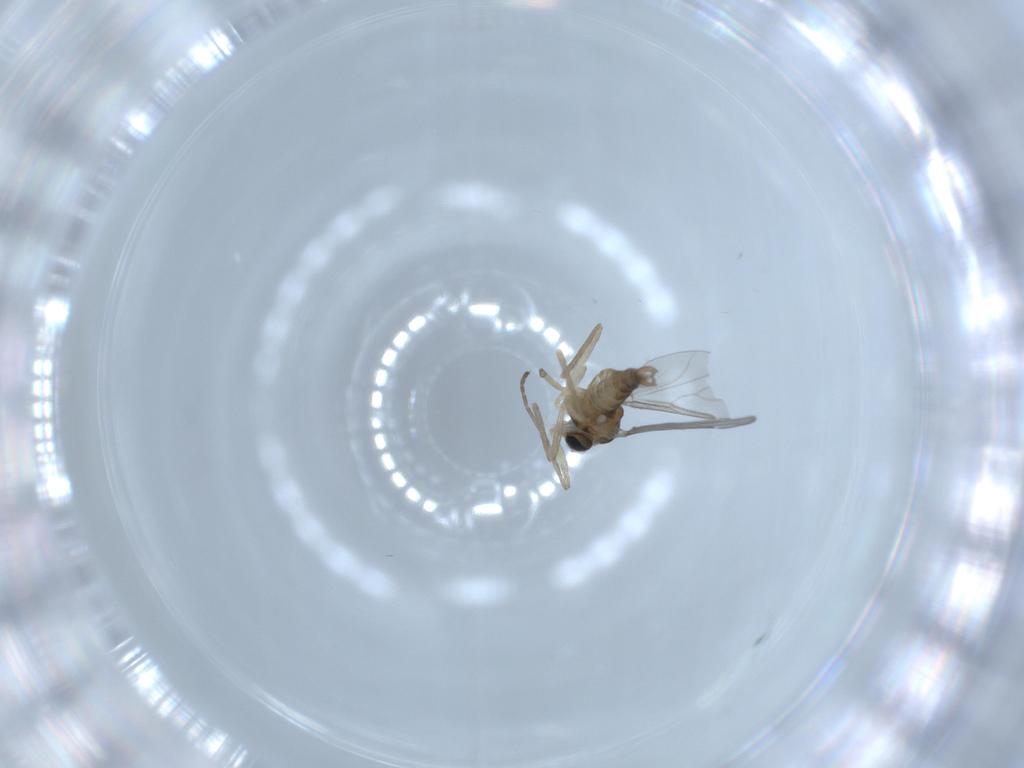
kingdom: Animalia
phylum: Arthropoda
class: Insecta
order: Diptera
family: Cecidomyiidae
